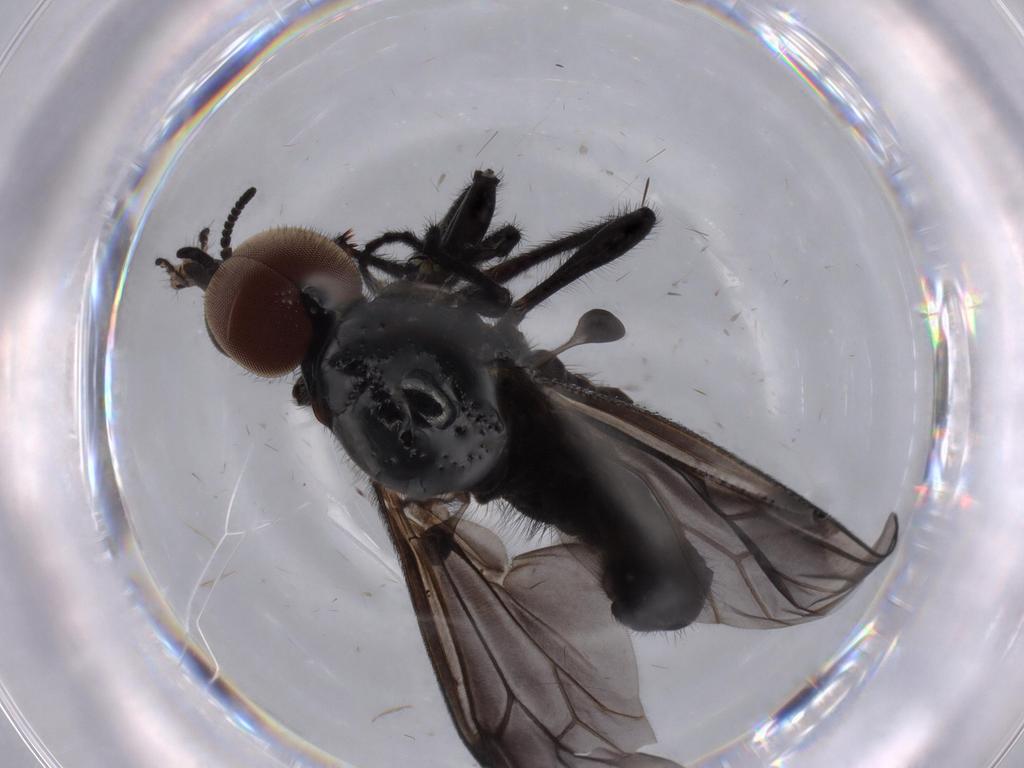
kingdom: Animalia
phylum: Arthropoda
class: Insecta
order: Diptera
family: Cecidomyiidae
